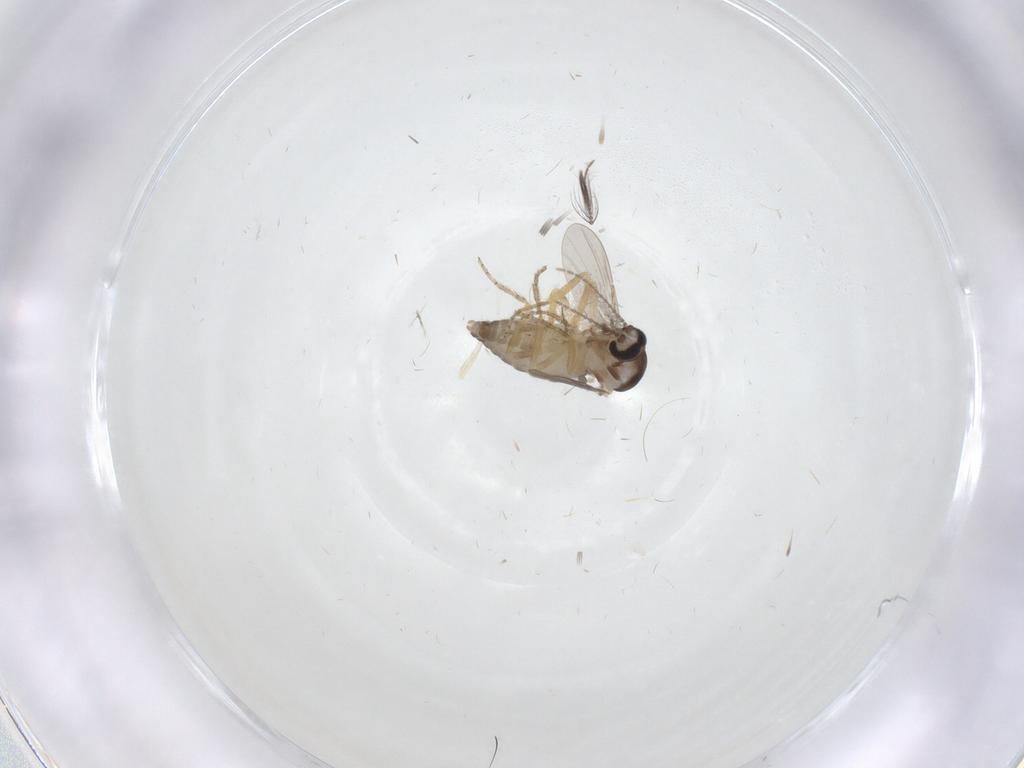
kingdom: Animalia
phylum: Arthropoda
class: Insecta
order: Diptera
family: Ceratopogonidae
